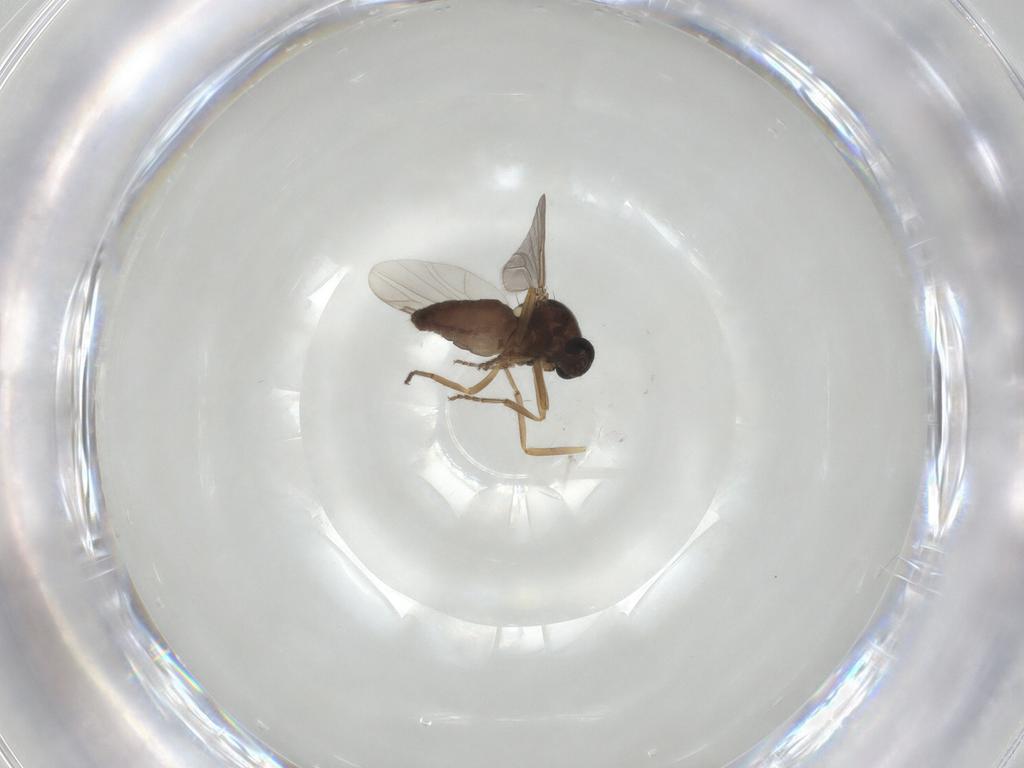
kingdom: Animalia
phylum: Arthropoda
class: Insecta
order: Diptera
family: Ceratopogonidae
